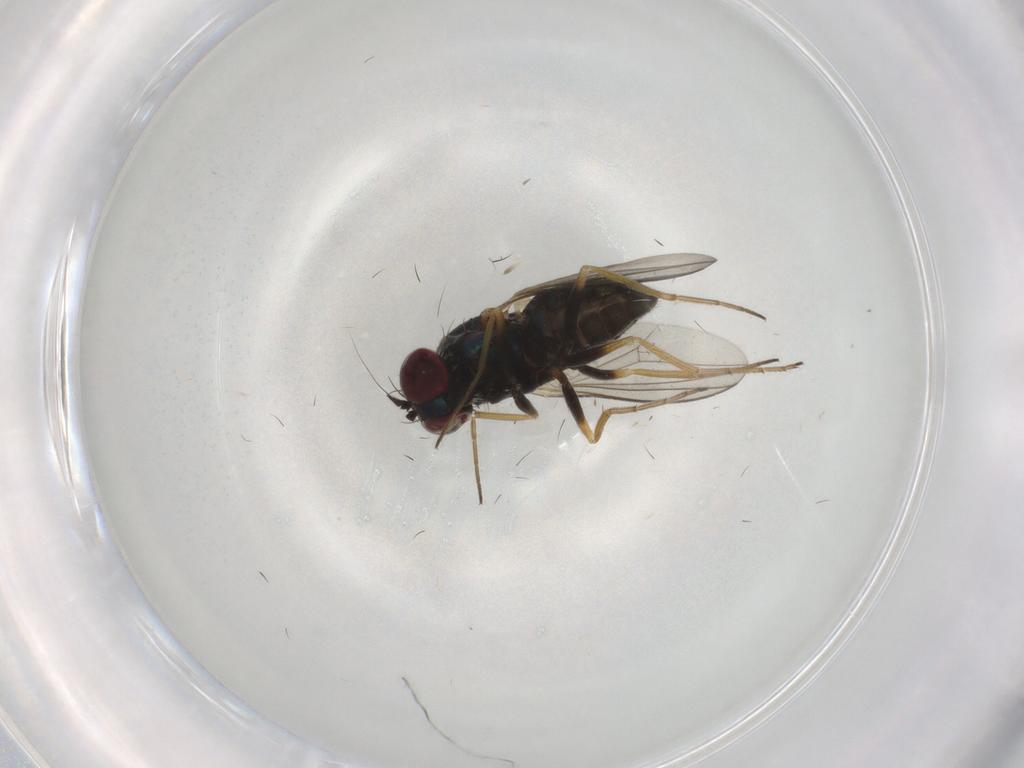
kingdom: Animalia
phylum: Arthropoda
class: Insecta
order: Diptera
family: Dolichopodidae
